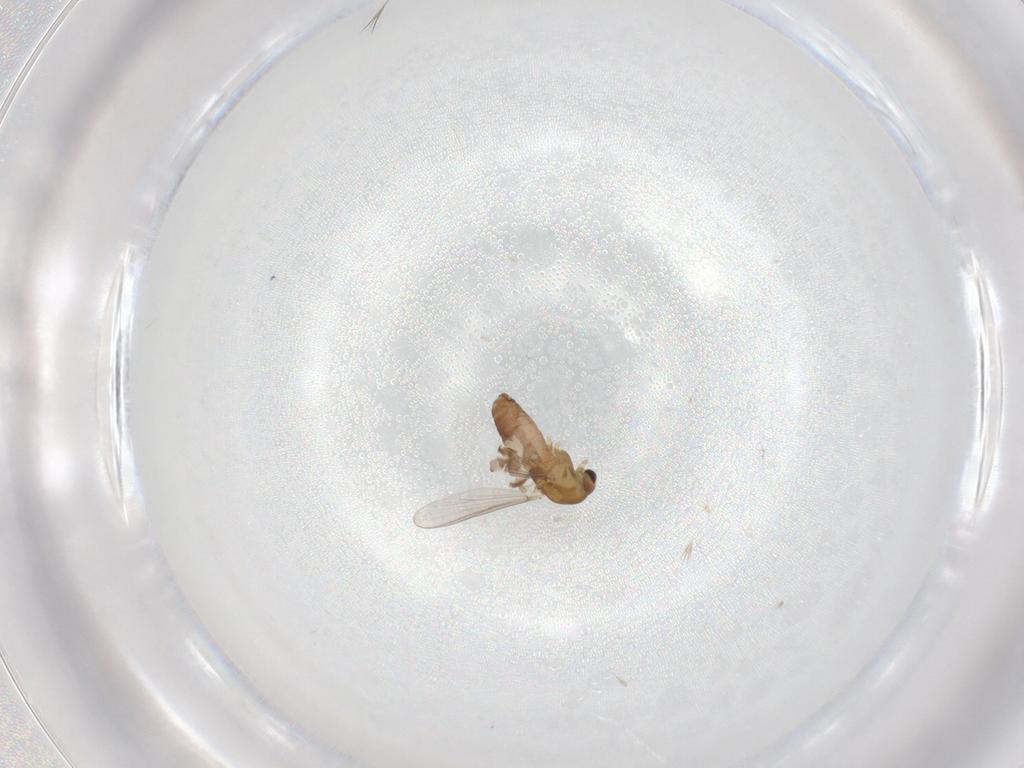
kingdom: Animalia
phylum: Arthropoda
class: Insecta
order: Diptera
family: Chironomidae
